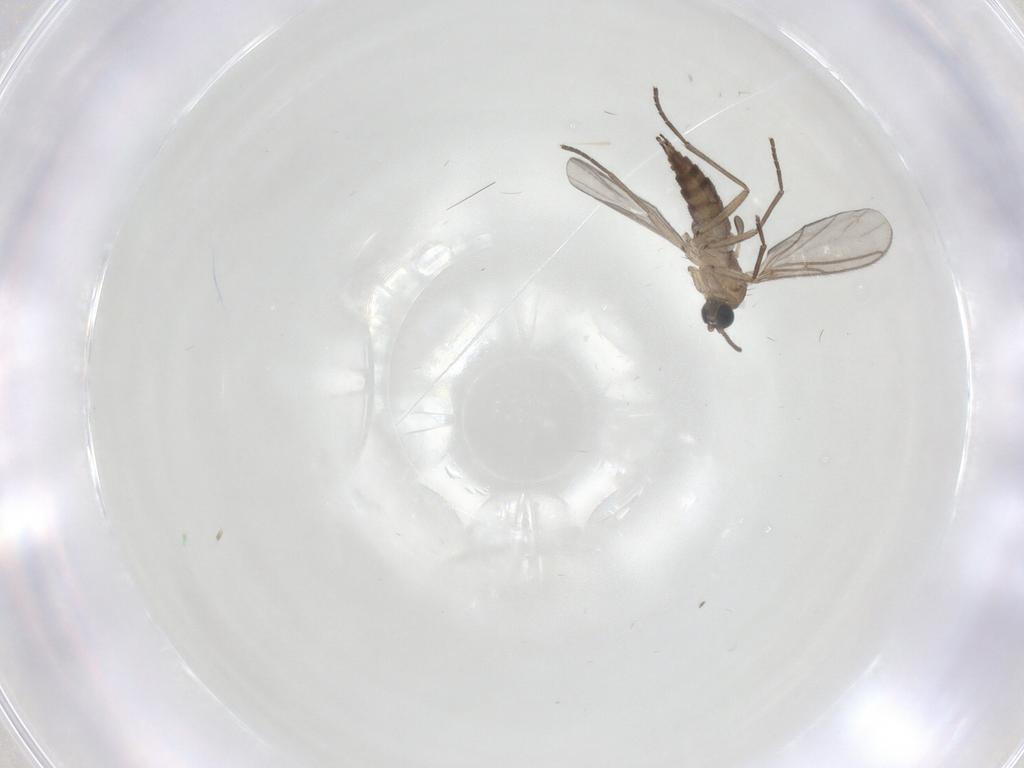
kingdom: Animalia
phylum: Arthropoda
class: Insecta
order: Diptera
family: Sciaridae
